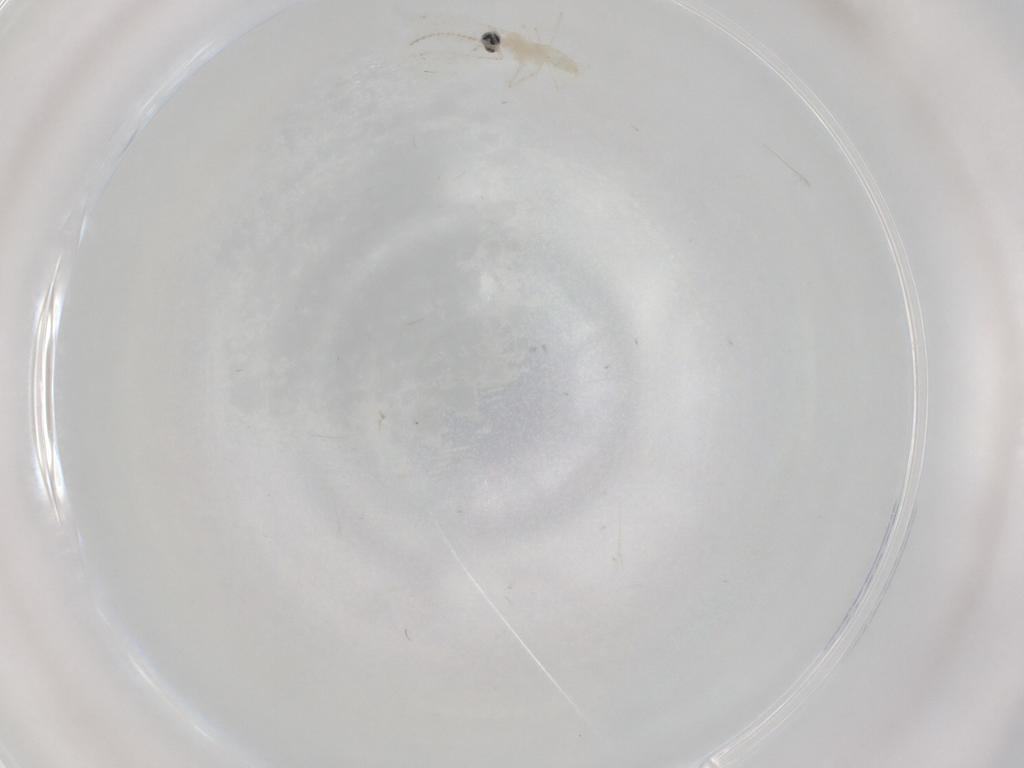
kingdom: Animalia
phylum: Arthropoda
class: Insecta
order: Diptera
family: Cecidomyiidae
